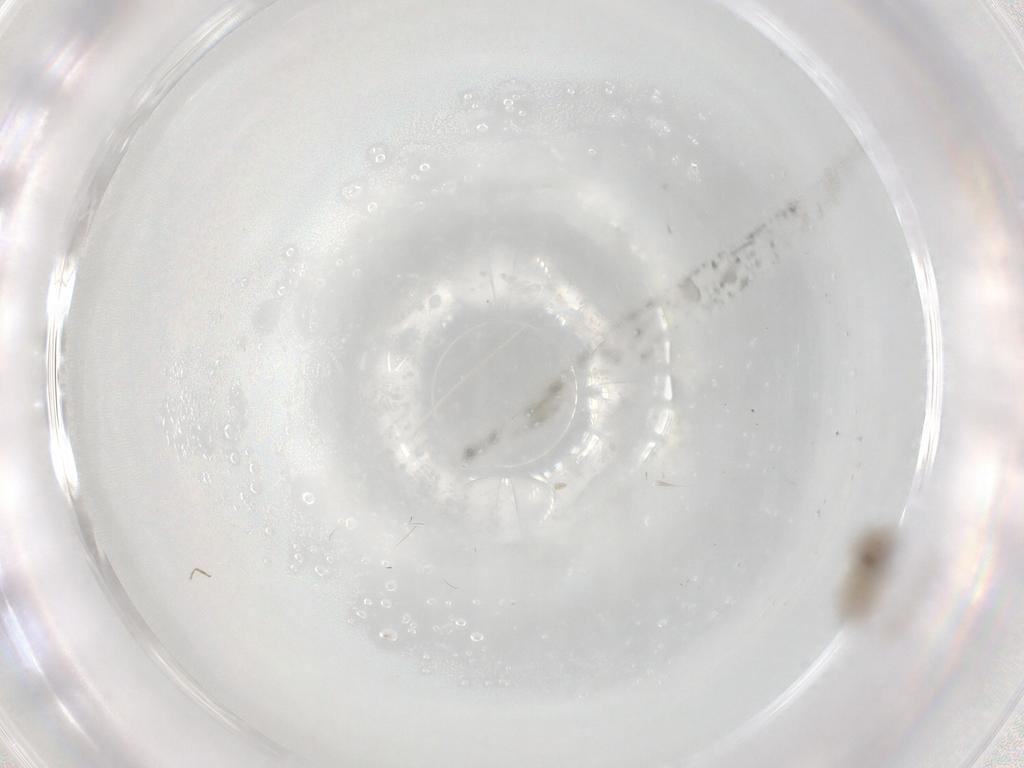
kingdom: Animalia
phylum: Arthropoda
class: Insecta
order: Diptera
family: Ceratopogonidae
